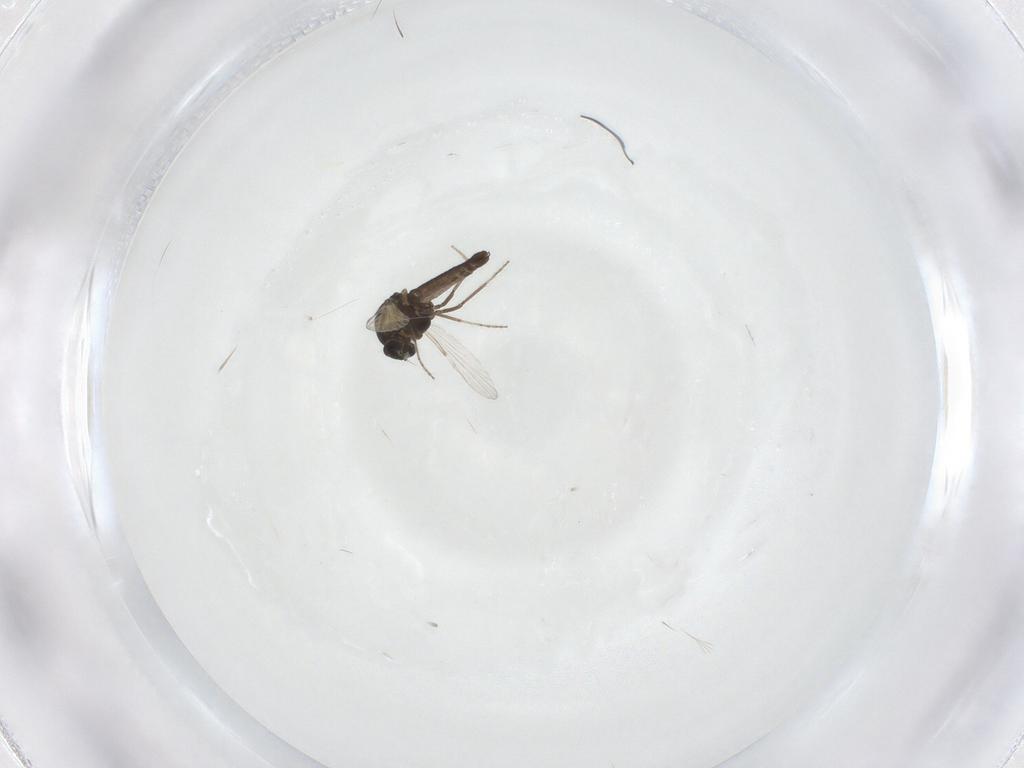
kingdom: Animalia
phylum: Arthropoda
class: Insecta
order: Diptera
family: Ceratopogonidae
